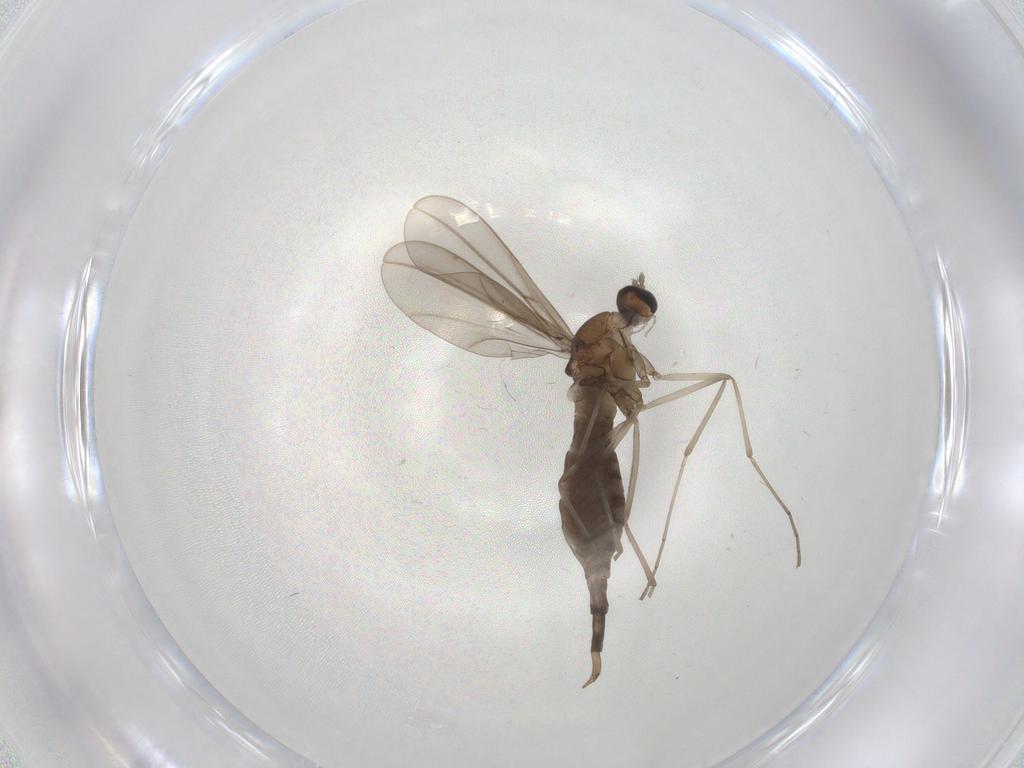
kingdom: Animalia
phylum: Arthropoda
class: Insecta
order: Diptera
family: Cecidomyiidae
